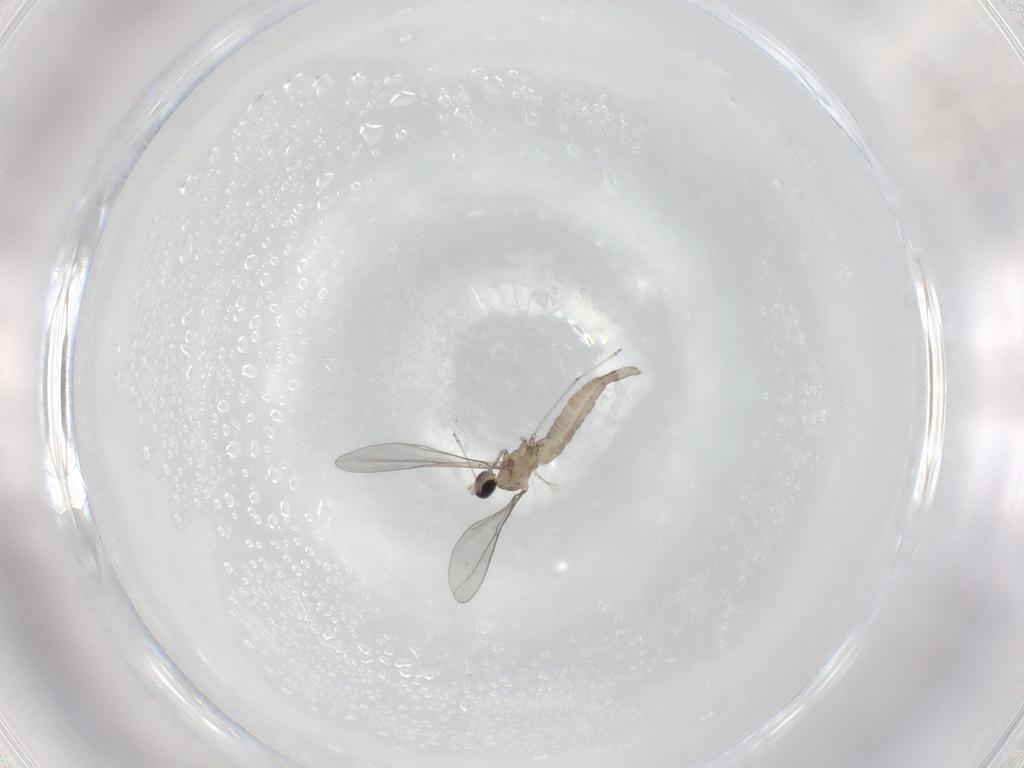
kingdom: Animalia
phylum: Arthropoda
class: Insecta
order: Diptera
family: Cecidomyiidae
